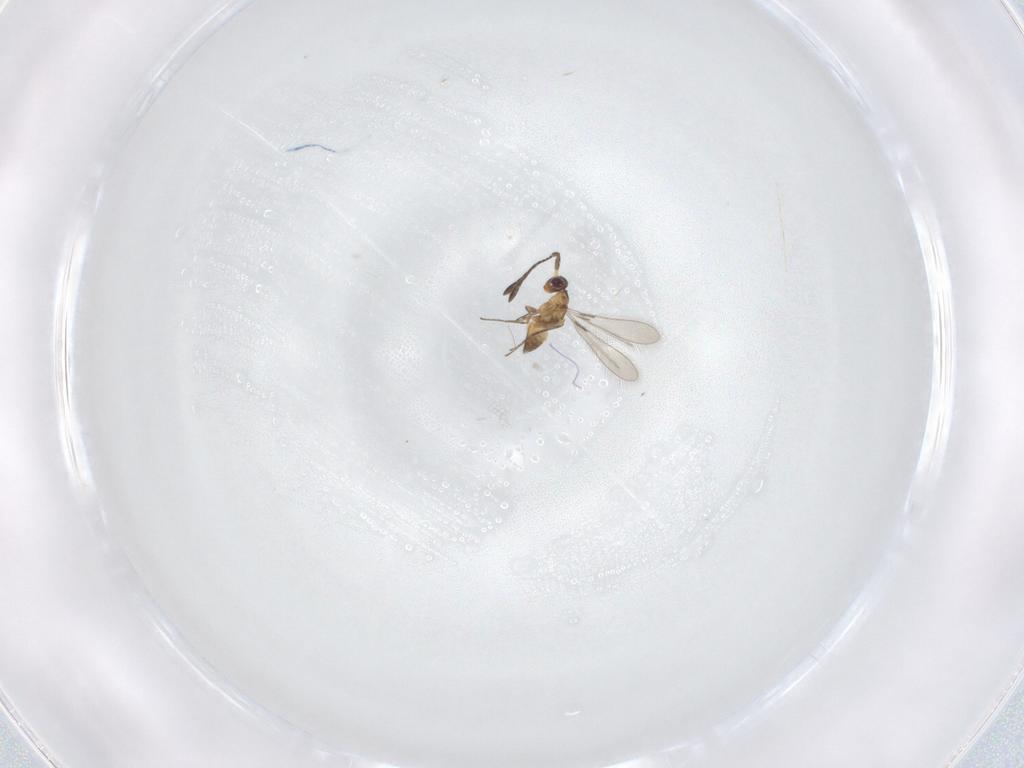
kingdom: Animalia
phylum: Arthropoda
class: Insecta
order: Hymenoptera
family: Mymaridae
